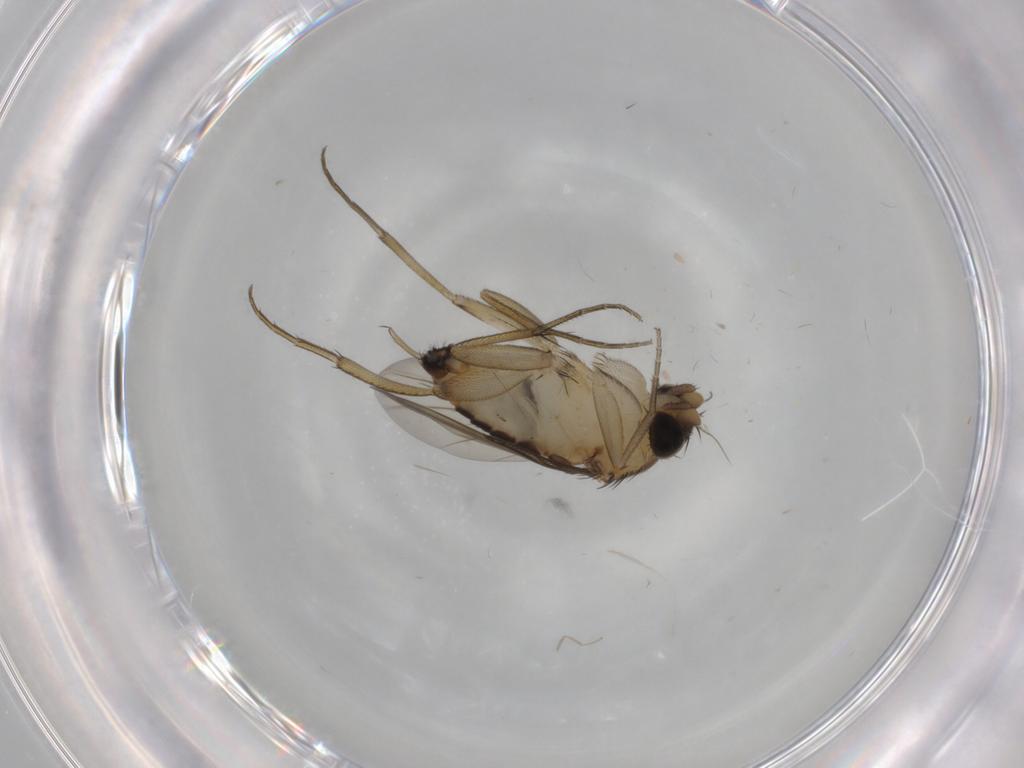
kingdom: Animalia
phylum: Arthropoda
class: Insecta
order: Diptera
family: Phoridae
